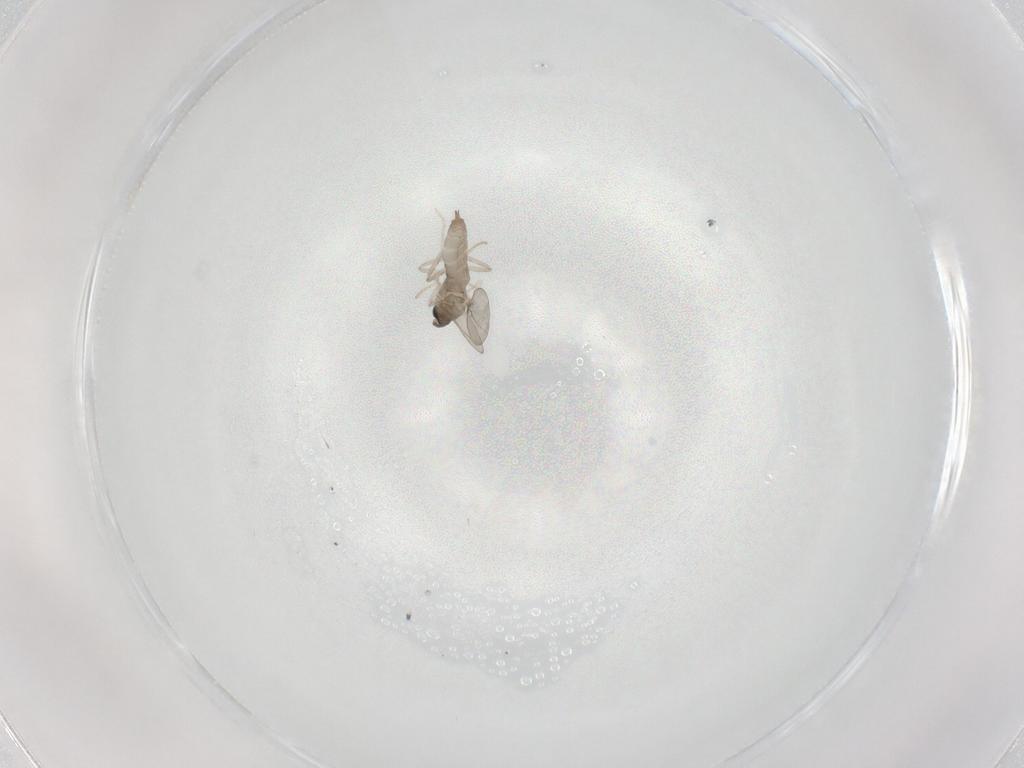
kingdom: Animalia
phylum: Arthropoda
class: Insecta
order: Diptera
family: Cecidomyiidae
